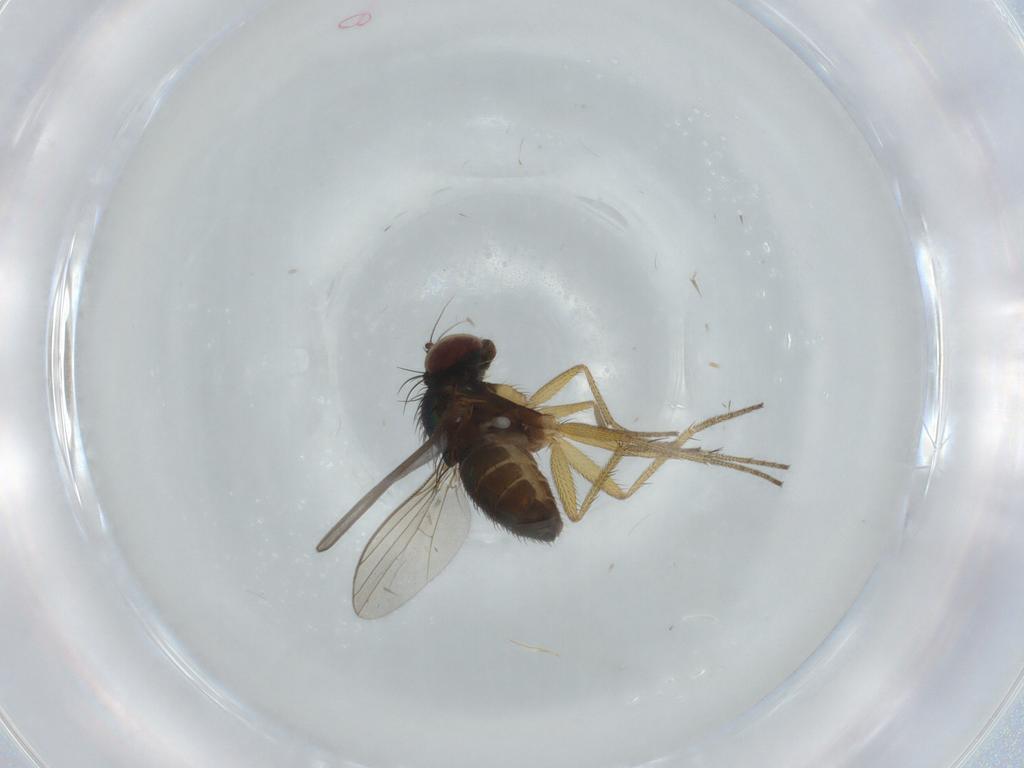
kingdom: Animalia
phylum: Arthropoda
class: Insecta
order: Diptera
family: Dolichopodidae
